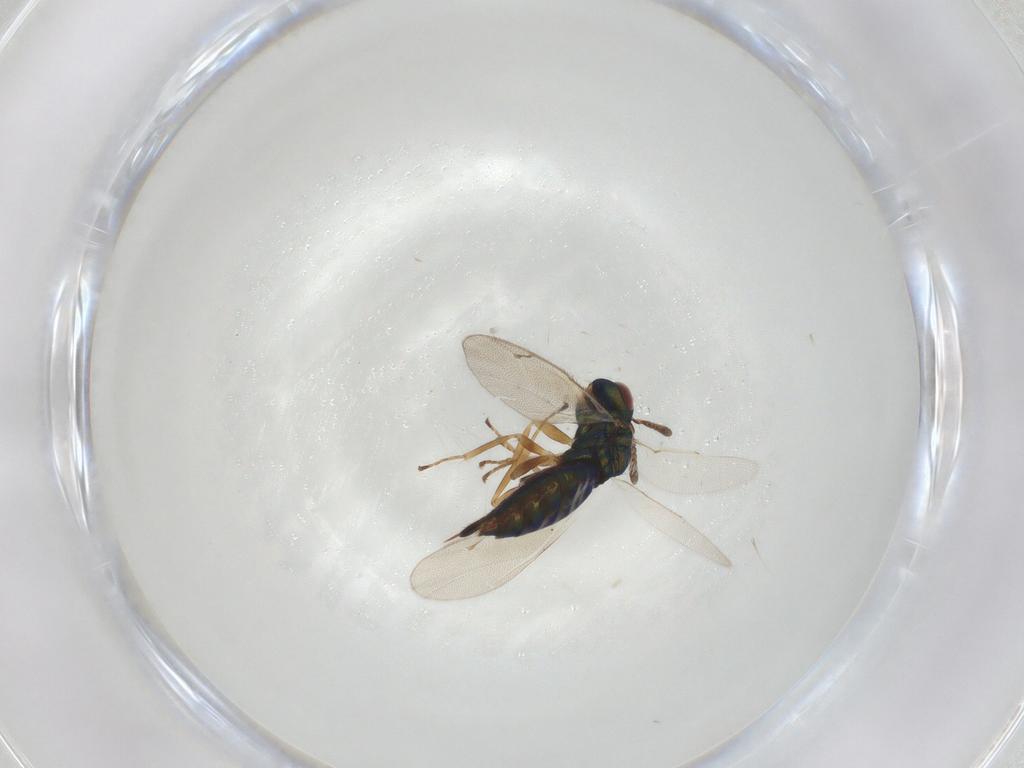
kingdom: Animalia
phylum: Arthropoda
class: Insecta
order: Hymenoptera
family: Pteromalidae
